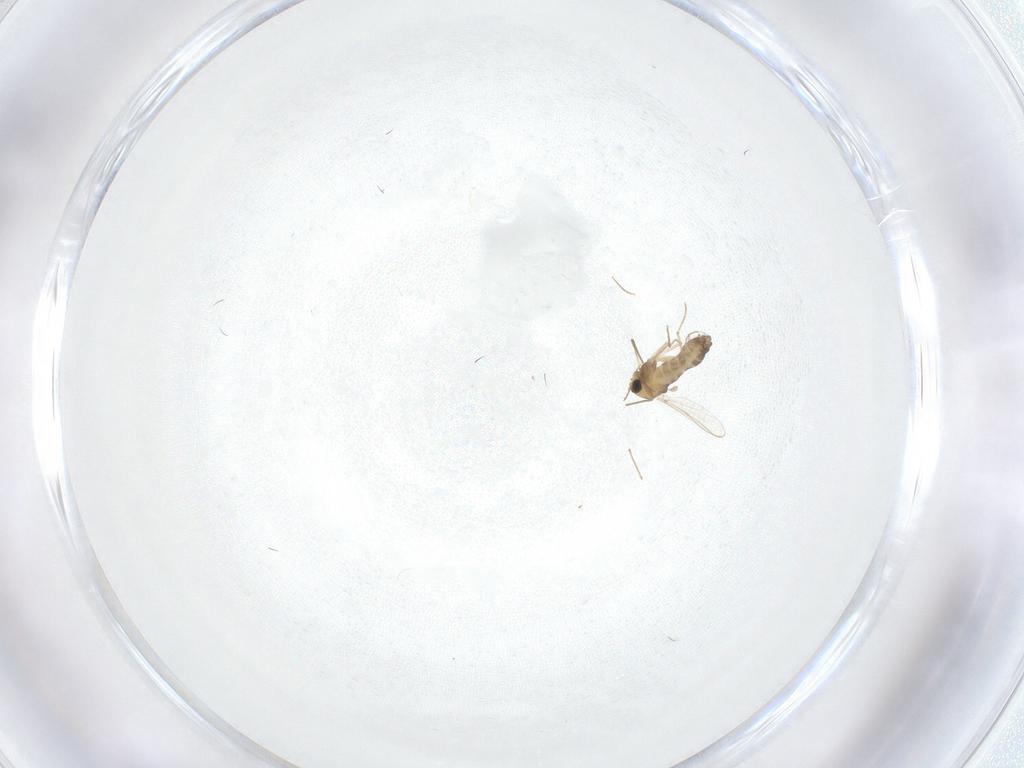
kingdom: Animalia
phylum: Arthropoda
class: Insecta
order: Diptera
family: Chironomidae
